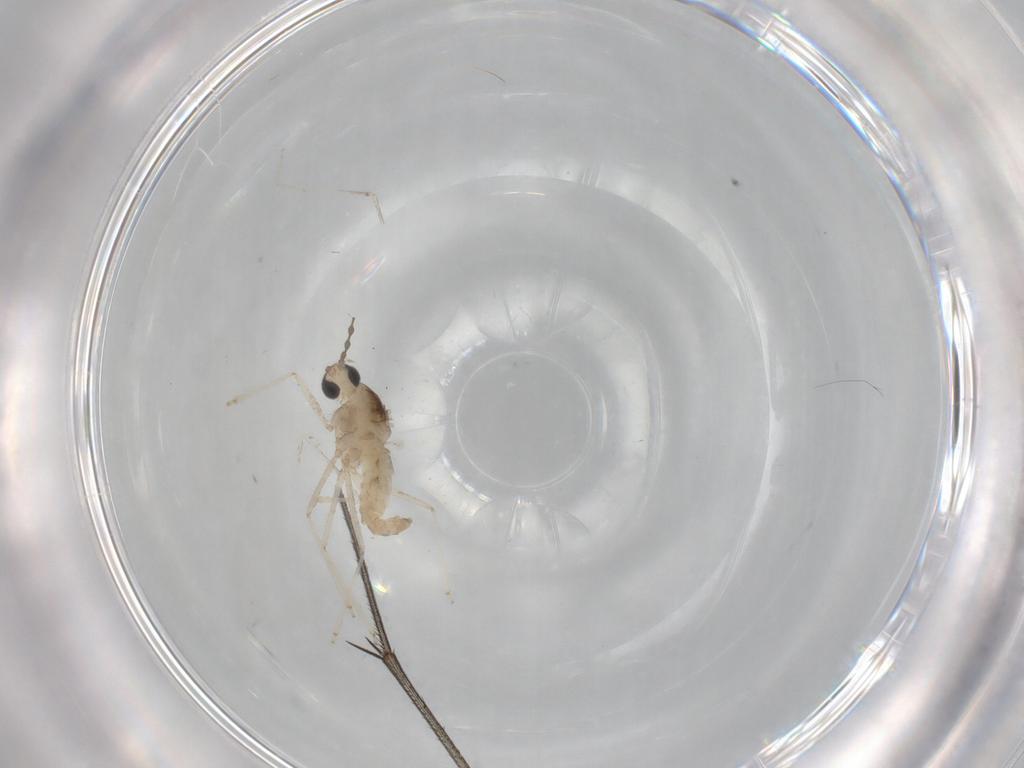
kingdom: Animalia
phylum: Arthropoda
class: Insecta
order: Diptera
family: Cecidomyiidae
